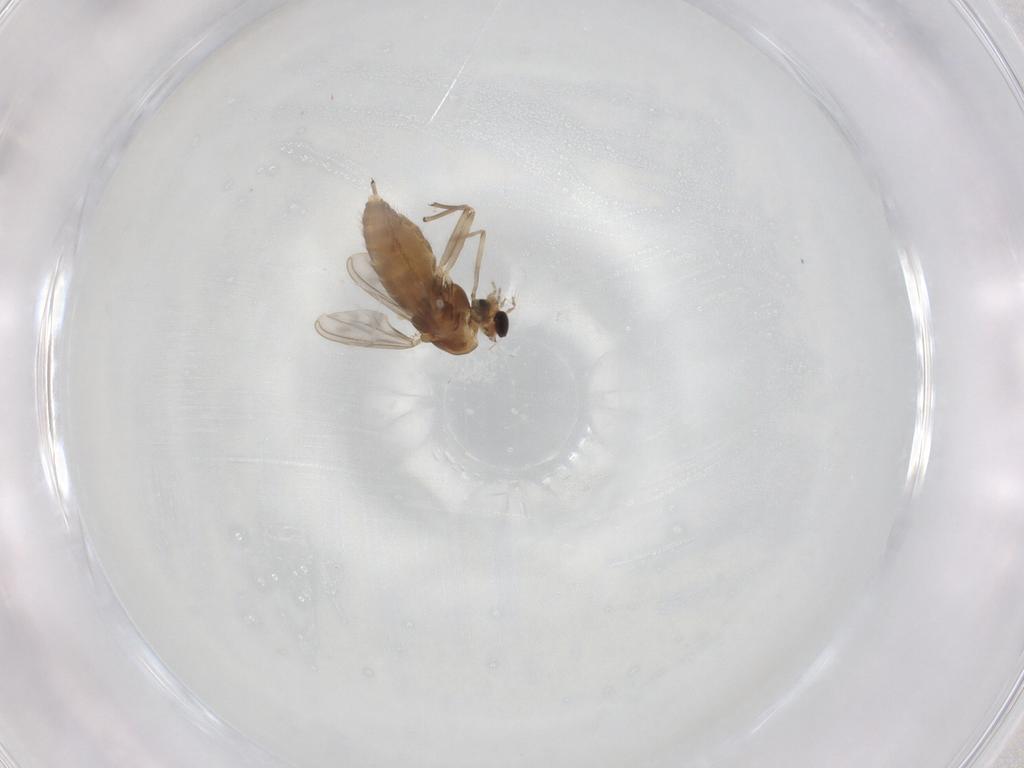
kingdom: Animalia
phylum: Arthropoda
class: Insecta
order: Diptera
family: Chironomidae
